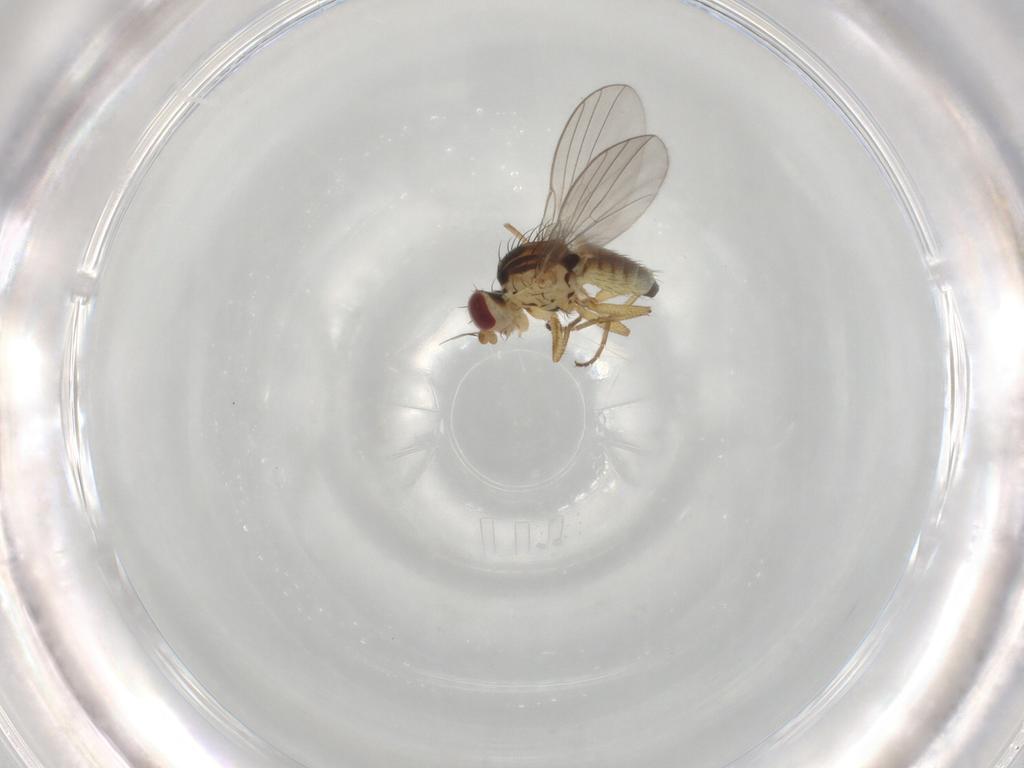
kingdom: Animalia
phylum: Arthropoda
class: Insecta
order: Diptera
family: Agromyzidae
